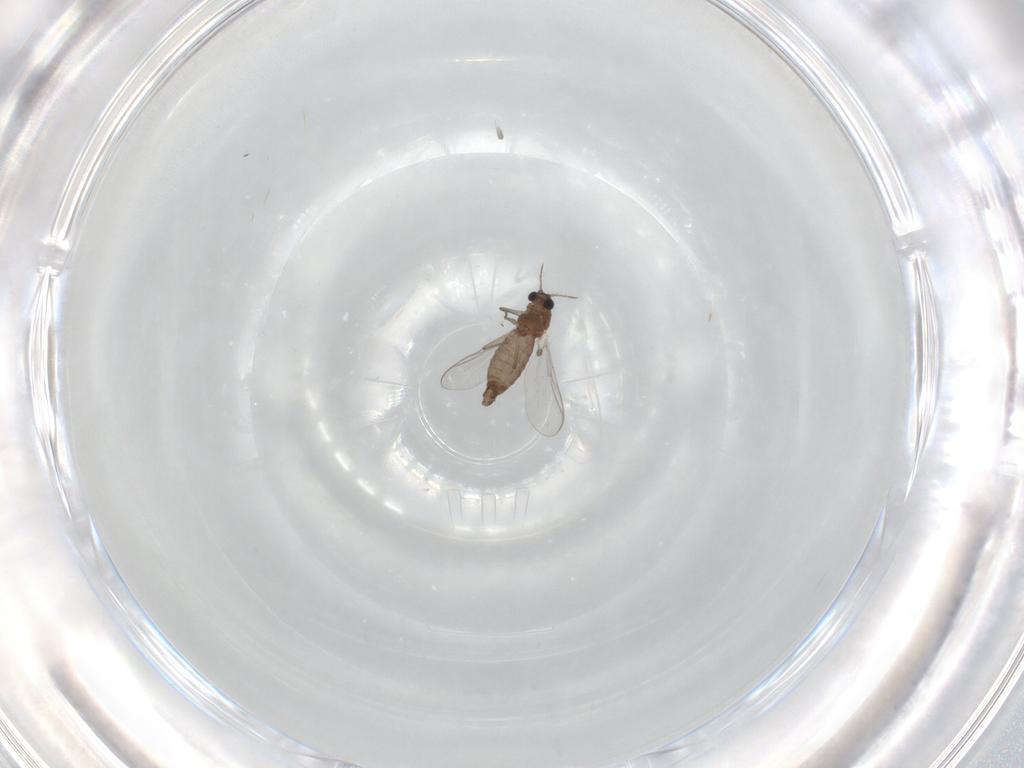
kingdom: Animalia
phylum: Arthropoda
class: Insecta
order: Diptera
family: Chironomidae
